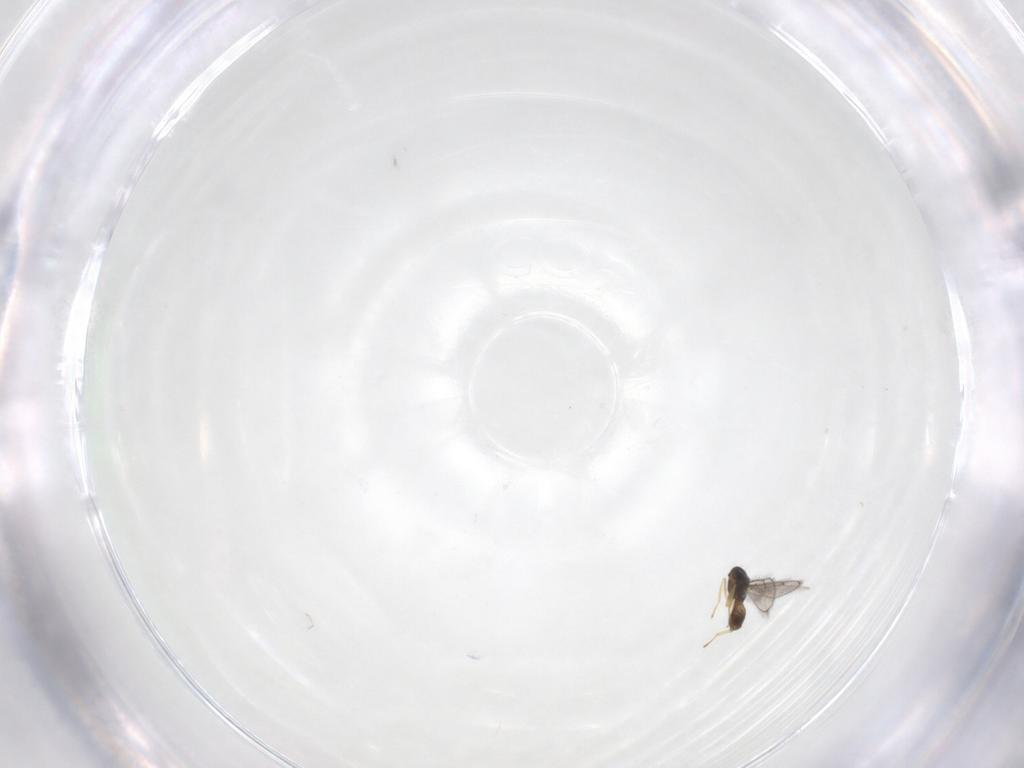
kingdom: Animalia
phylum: Arthropoda
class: Insecta
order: Hymenoptera
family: Eulophidae
